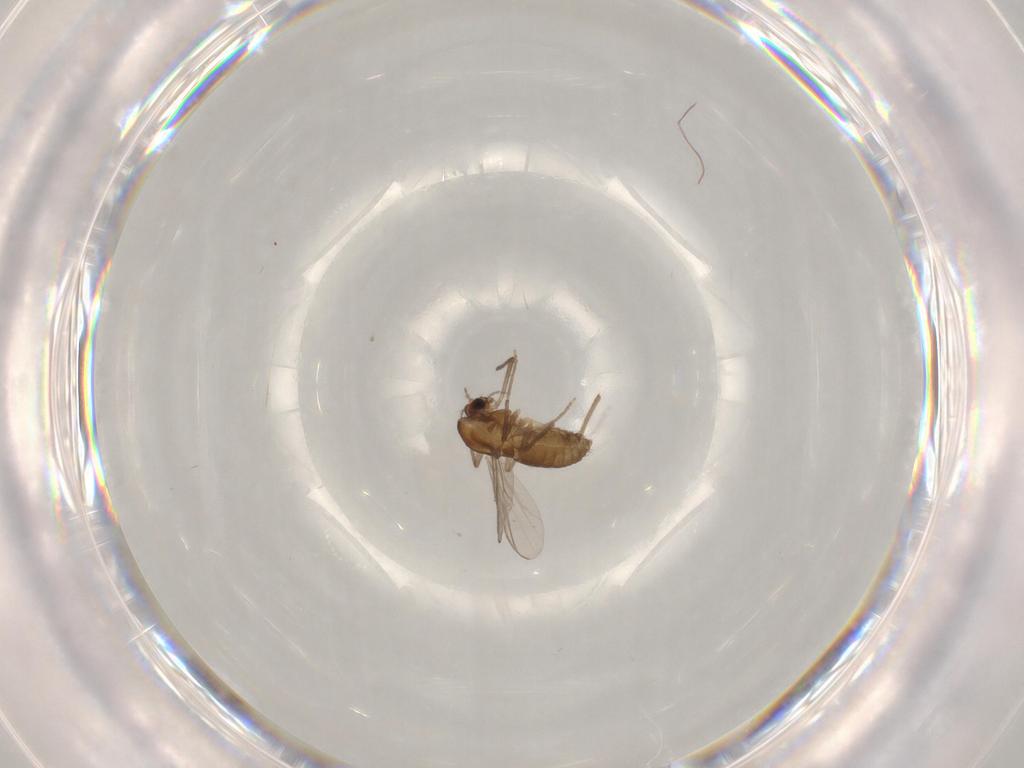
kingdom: Animalia
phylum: Arthropoda
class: Insecta
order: Diptera
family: Chironomidae
